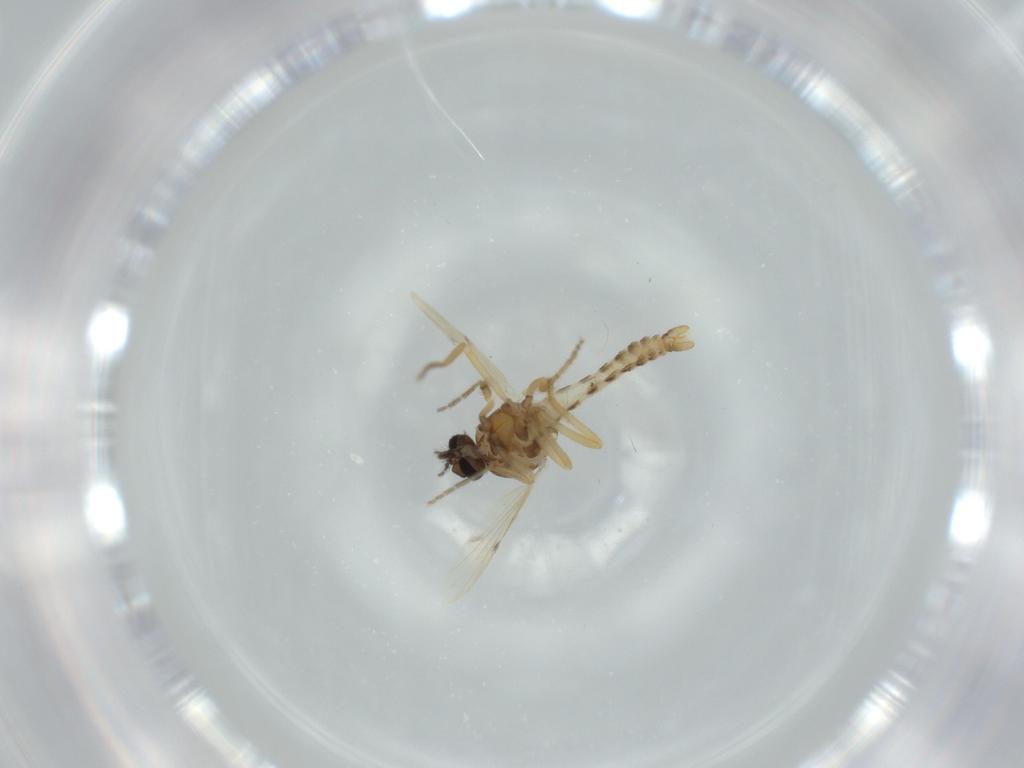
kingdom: Animalia
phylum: Arthropoda
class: Insecta
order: Diptera
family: Ceratopogonidae
